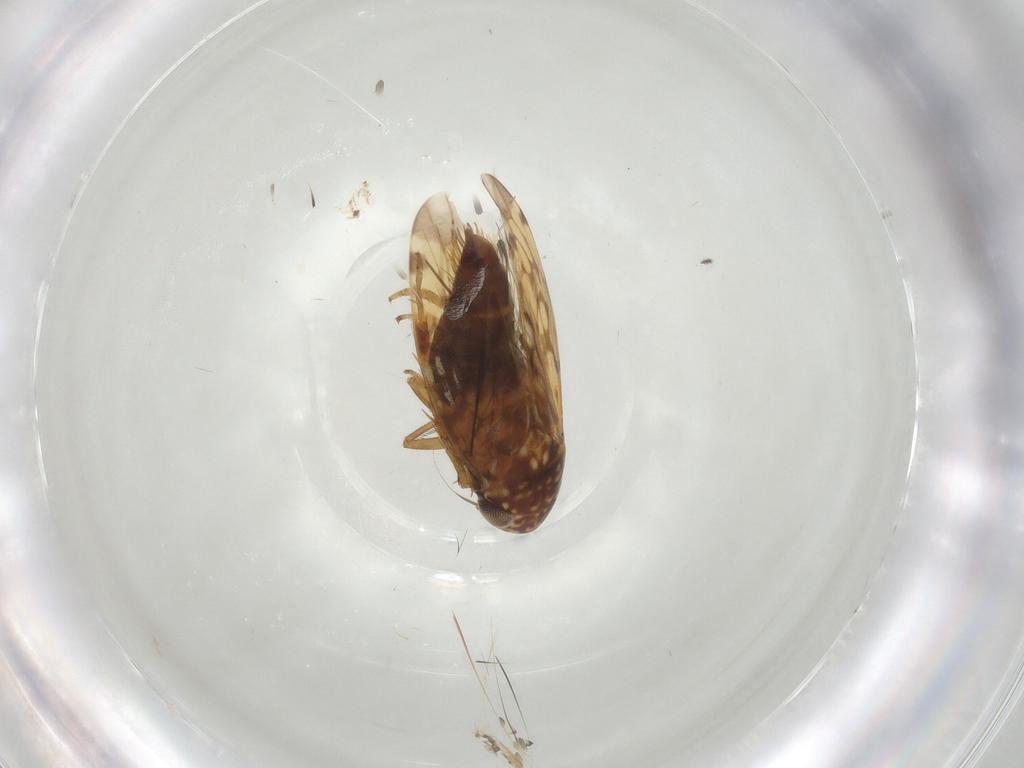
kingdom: Animalia
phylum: Arthropoda
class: Insecta
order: Hemiptera
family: Cicadellidae
